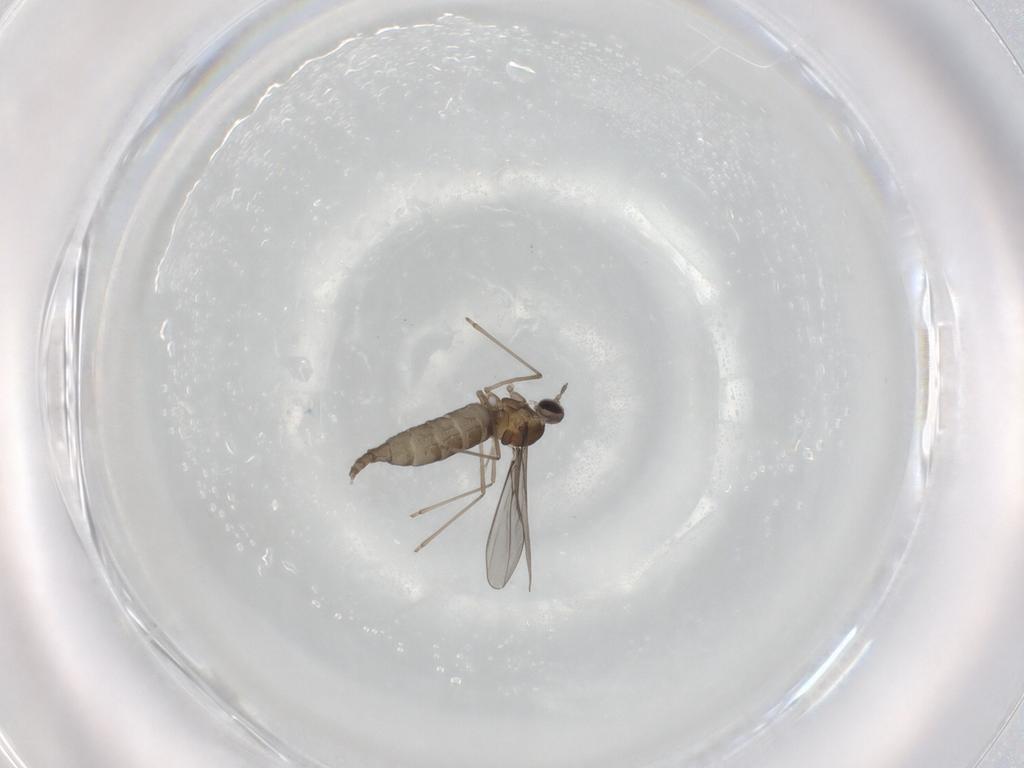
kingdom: Animalia
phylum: Arthropoda
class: Insecta
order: Diptera
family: Cecidomyiidae
